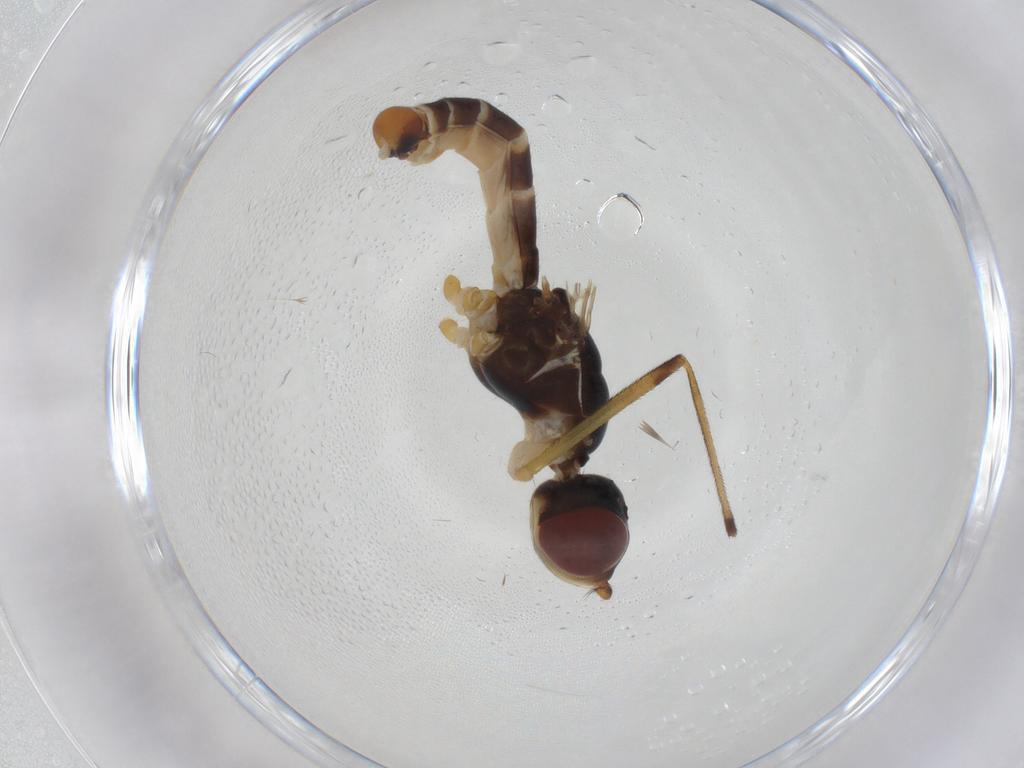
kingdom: Animalia
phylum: Arthropoda
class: Insecta
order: Diptera
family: Micropezidae
